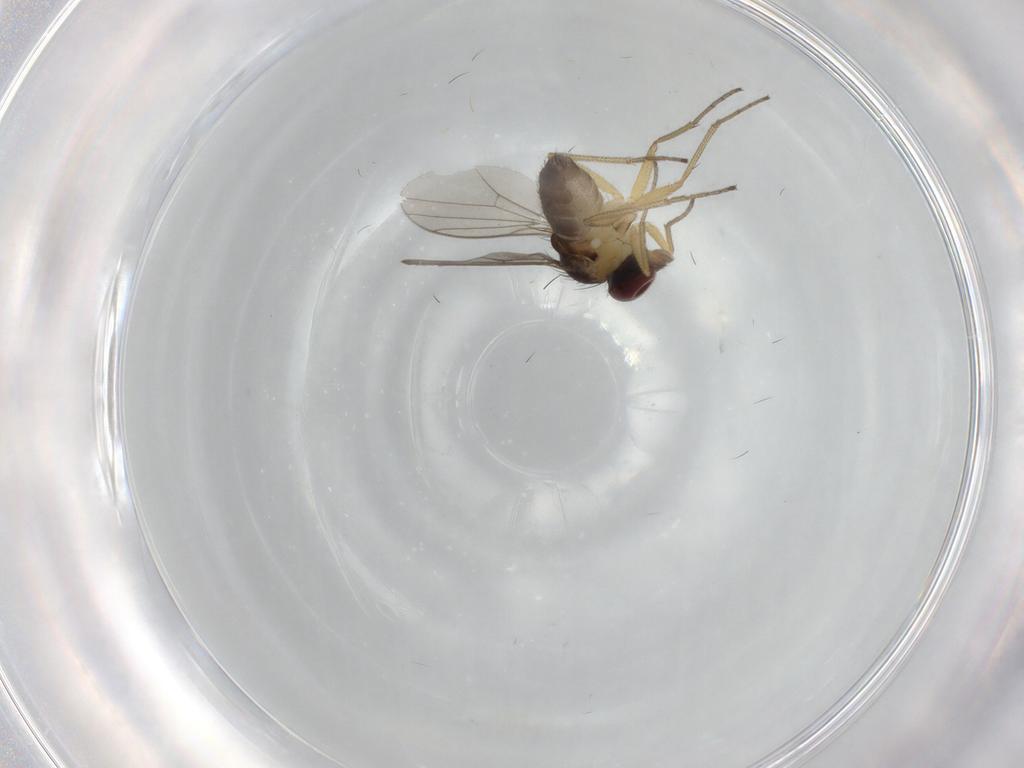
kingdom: Animalia
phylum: Arthropoda
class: Insecta
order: Diptera
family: Dolichopodidae
